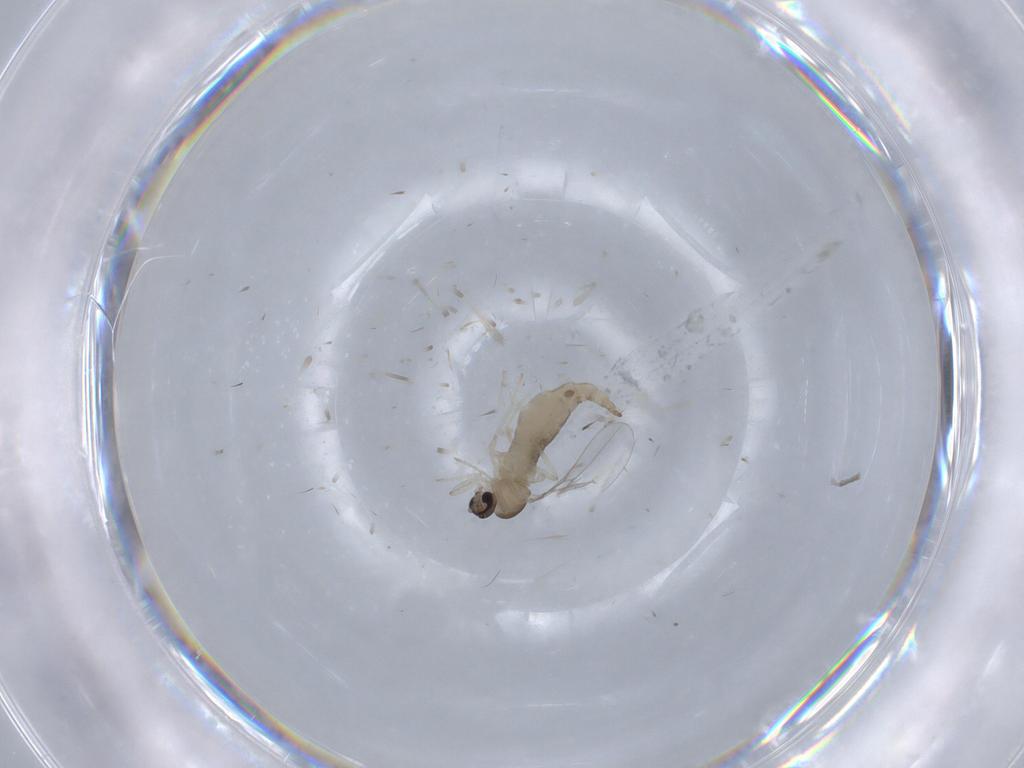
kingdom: Animalia
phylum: Arthropoda
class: Insecta
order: Diptera
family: Cecidomyiidae
